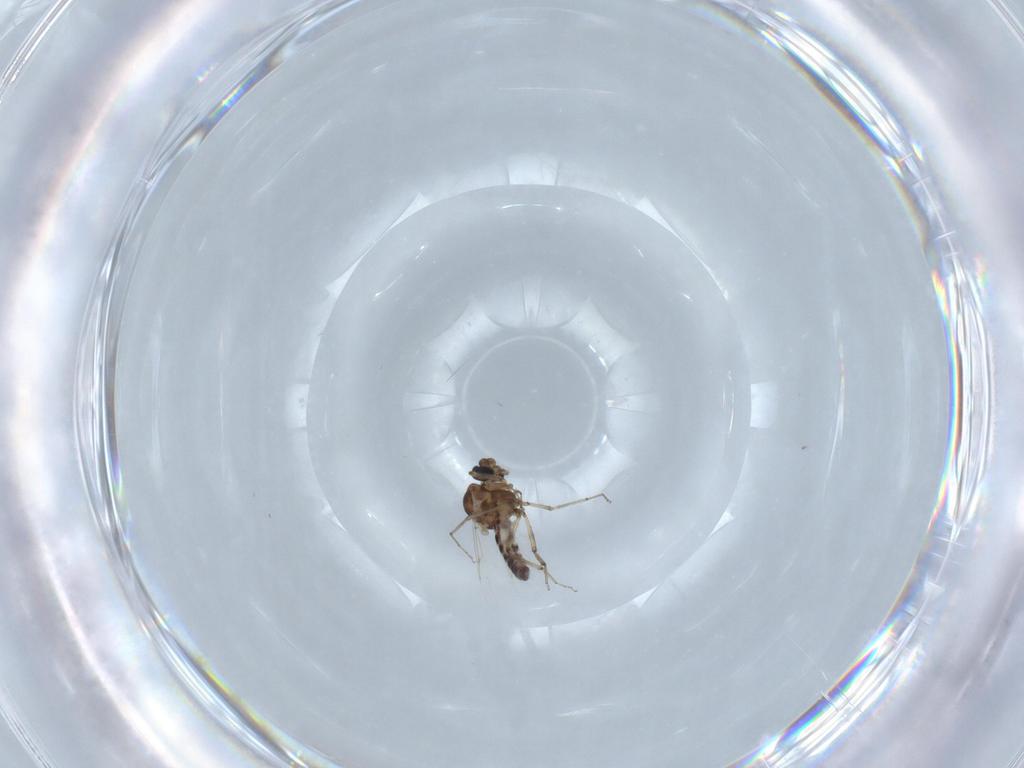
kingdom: Animalia
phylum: Arthropoda
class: Insecta
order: Diptera
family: Ceratopogonidae
